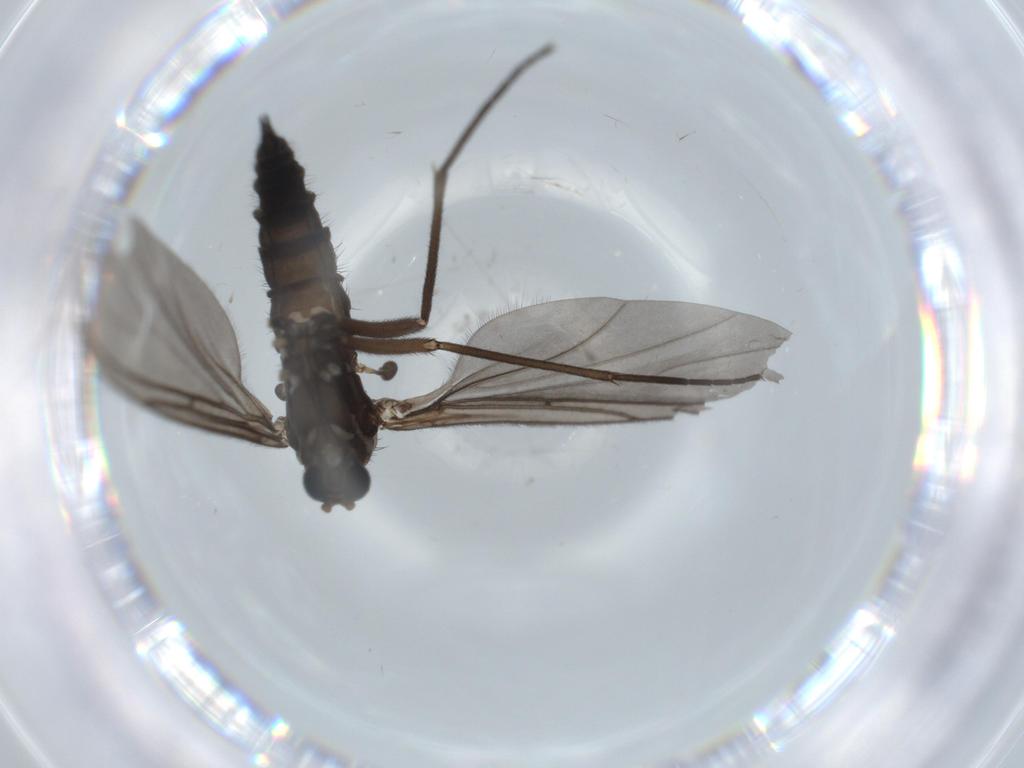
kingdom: Animalia
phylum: Arthropoda
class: Insecta
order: Diptera
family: Sciaridae
